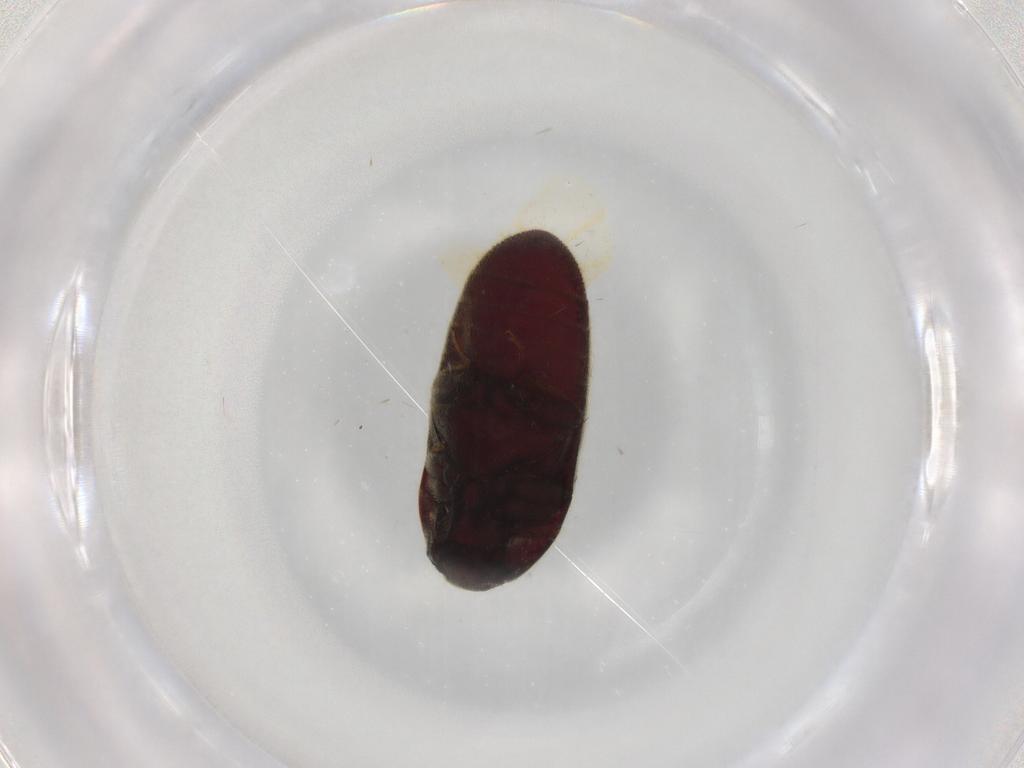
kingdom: Animalia
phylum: Arthropoda
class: Insecta
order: Coleoptera
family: Throscidae
